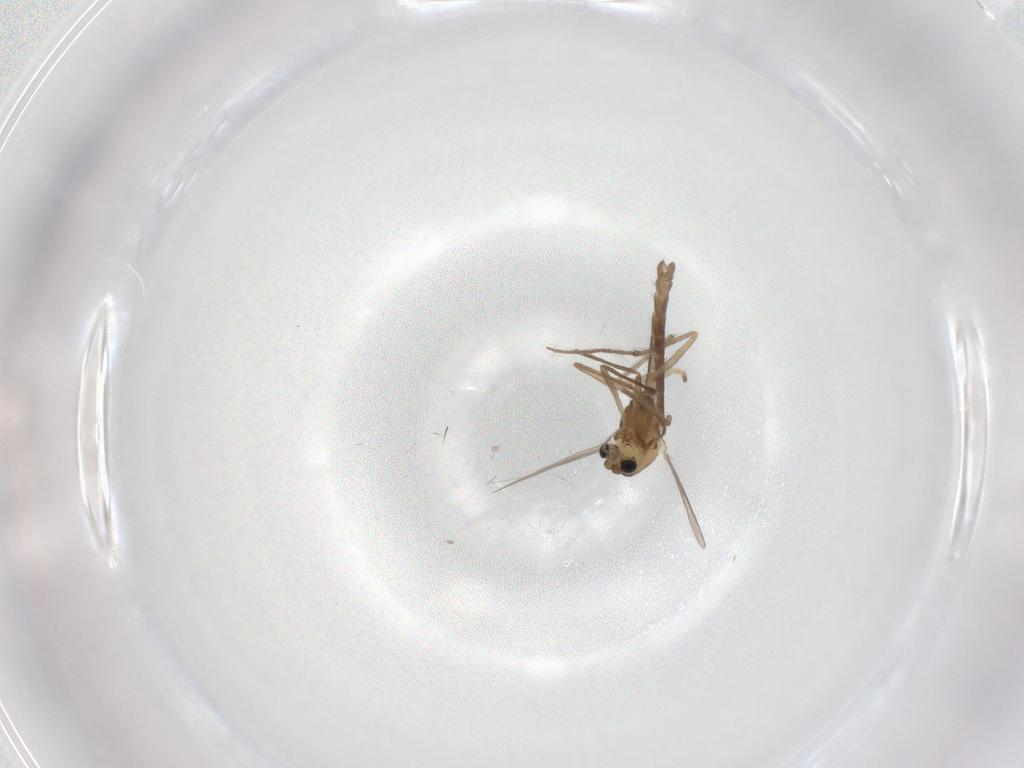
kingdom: Animalia
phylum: Arthropoda
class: Insecta
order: Diptera
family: Chironomidae
